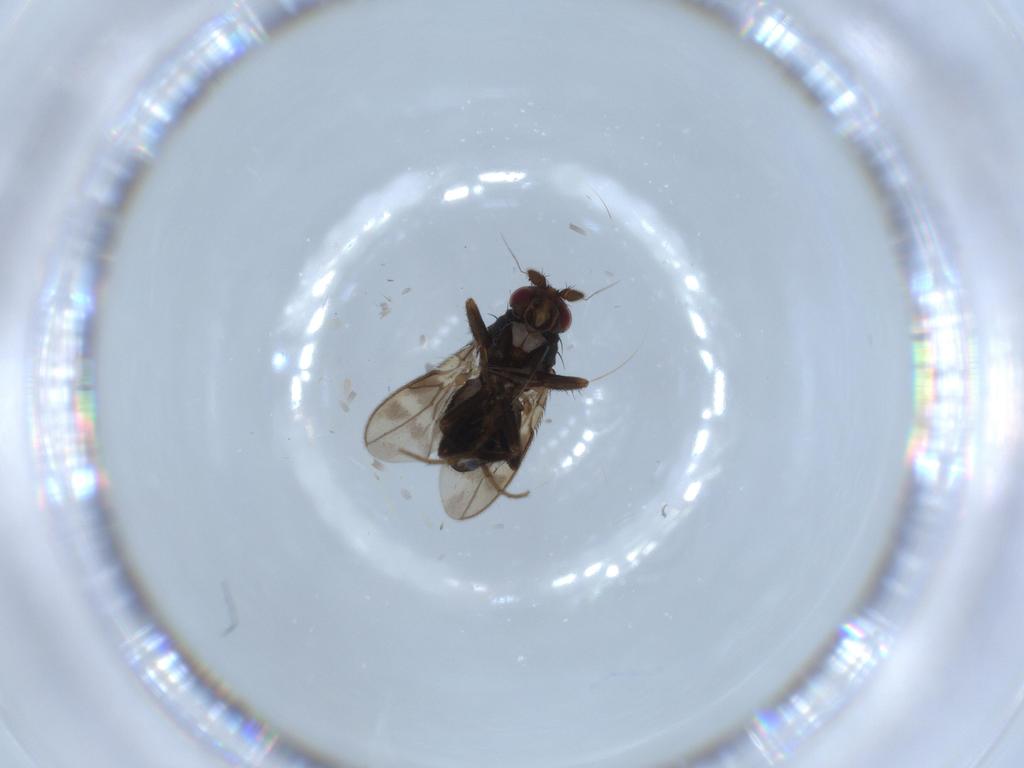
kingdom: Animalia
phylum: Arthropoda
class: Insecta
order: Diptera
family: Sphaeroceridae
